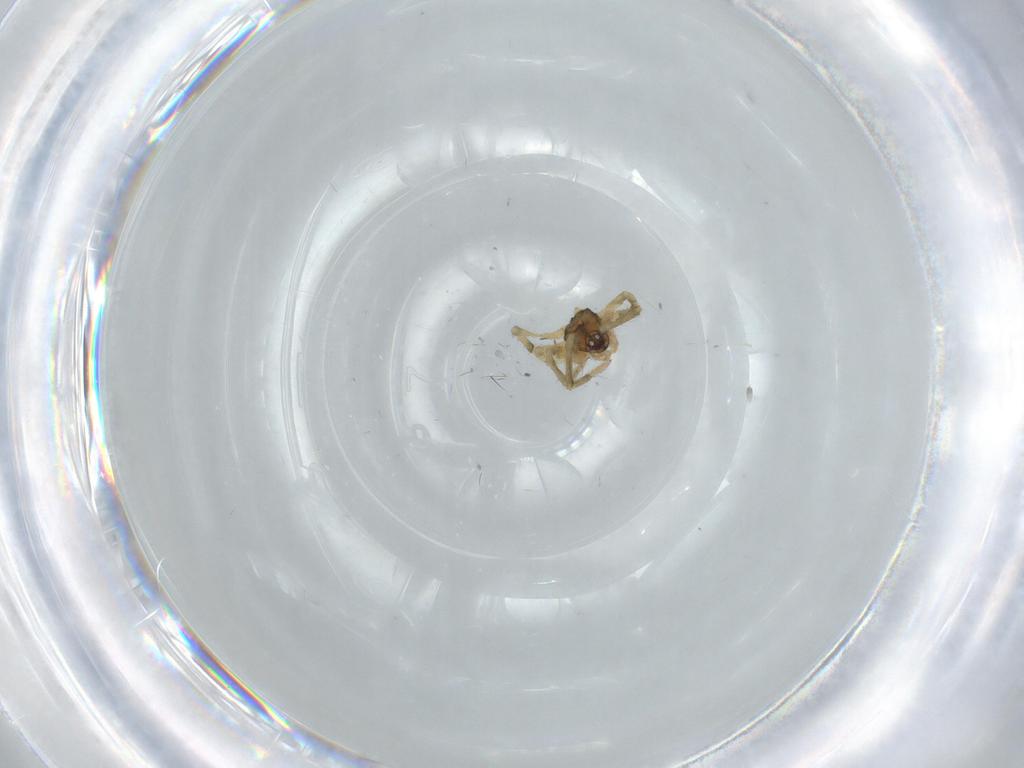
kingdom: Animalia
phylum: Arthropoda
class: Arachnida
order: Araneae
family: Theridiidae
